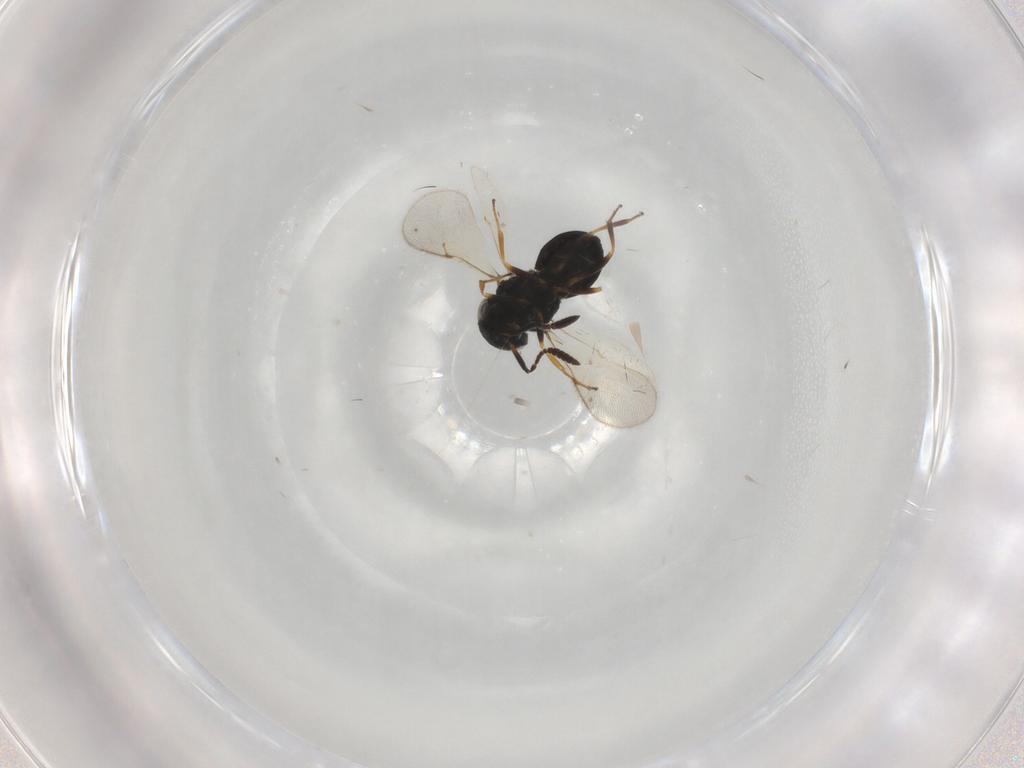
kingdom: Animalia
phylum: Arthropoda
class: Insecta
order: Hymenoptera
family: Scelionidae
